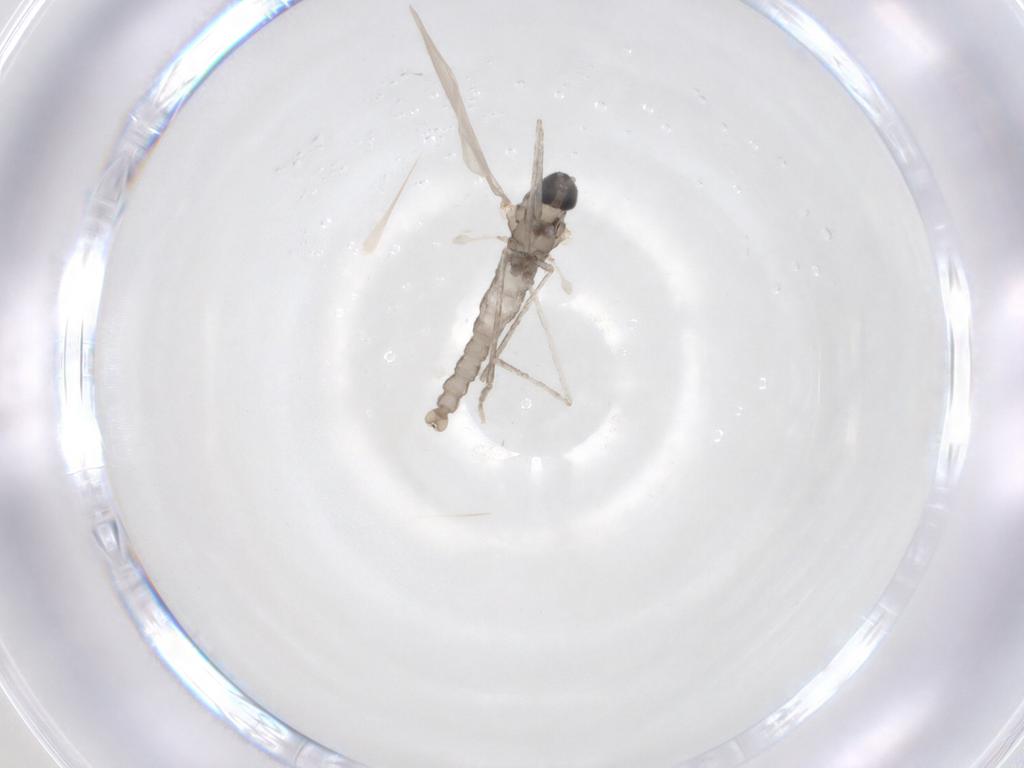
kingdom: Animalia
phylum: Arthropoda
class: Insecta
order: Diptera
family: Cecidomyiidae
